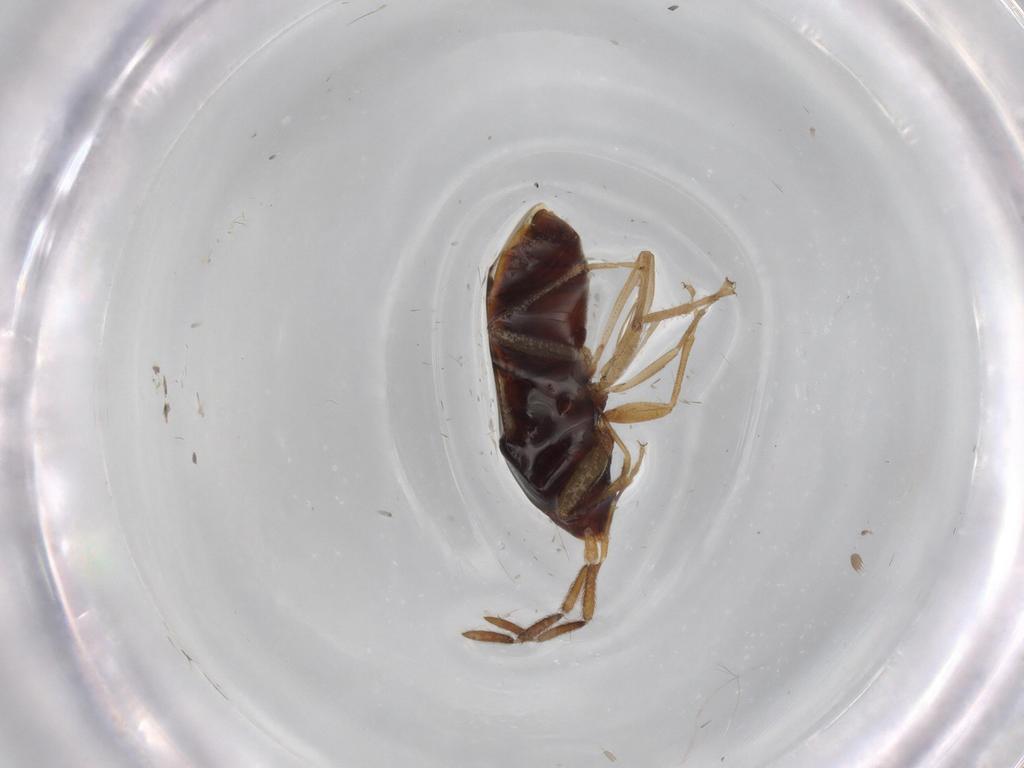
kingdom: Animalia
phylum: Arthropoda
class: Insecta
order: Hemiptera
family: Rhyparochromidae
